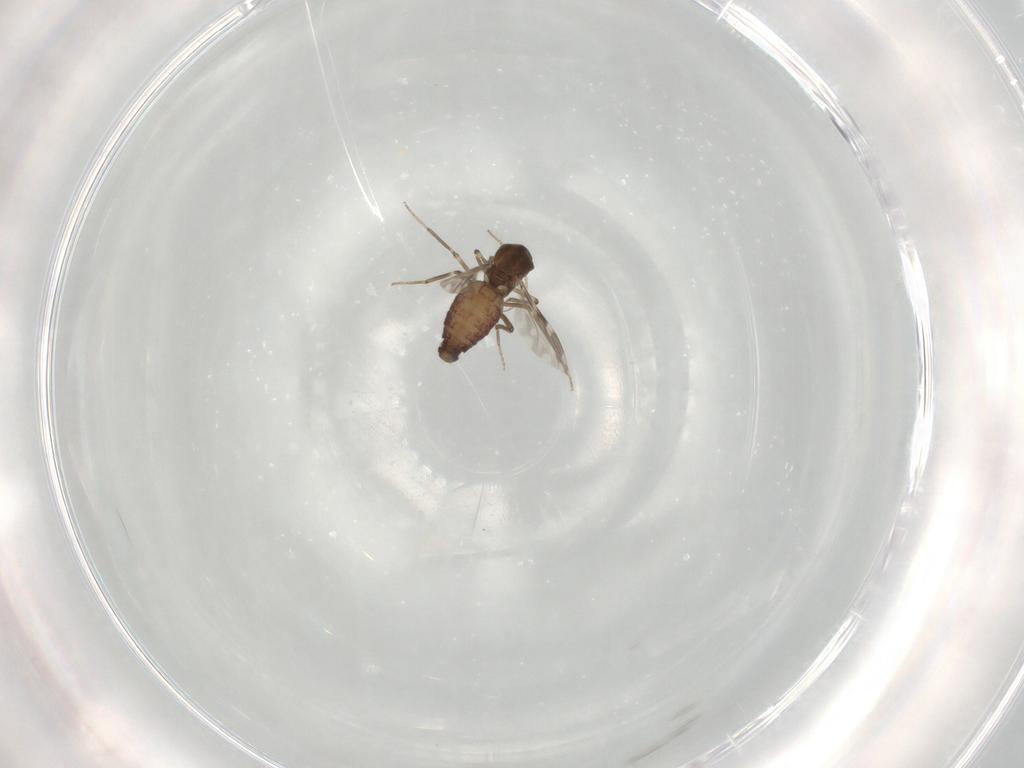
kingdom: Animalia
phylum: Arthropoda
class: Insecta
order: Diptera
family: Ceratopogonidae
